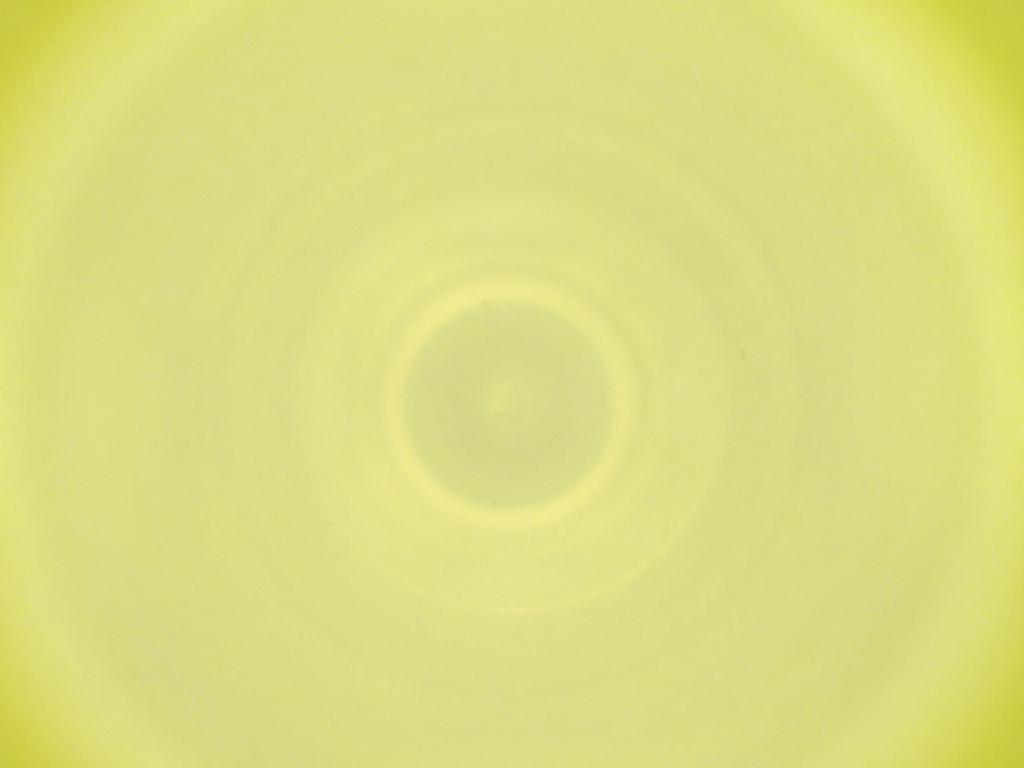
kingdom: Animalia
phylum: Arthropoda
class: Insecta
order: Diptera
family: Cecidomyiidae
